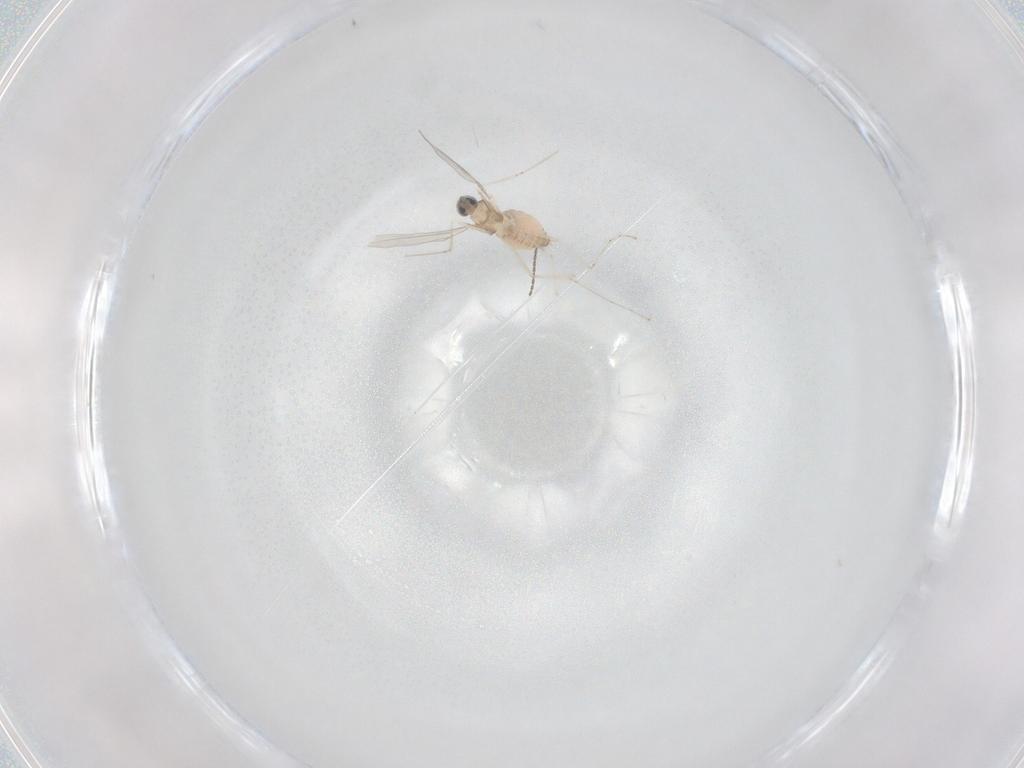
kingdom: Animalia
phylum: Arthropoda
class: Insecta
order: Diptera
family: Cecidomyiidae
